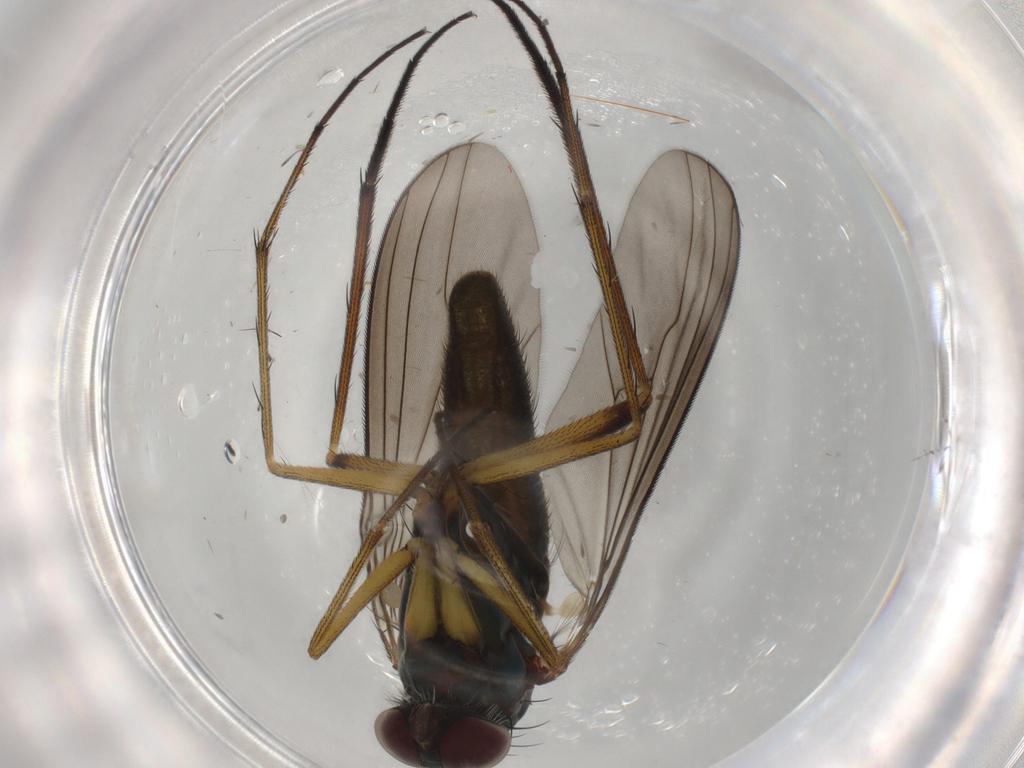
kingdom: Animalia
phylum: Arthropoda
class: Insecta
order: Diptera
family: Dolichopodidae
